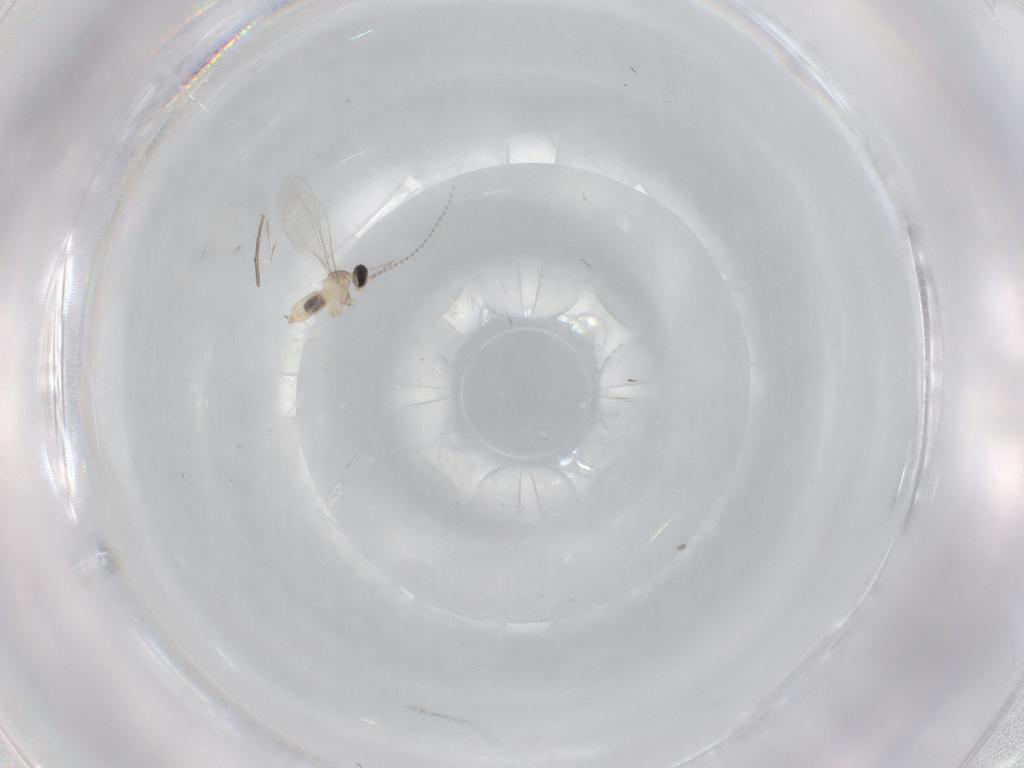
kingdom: Animalia
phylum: Arthropoda
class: Insecta
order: Diptera
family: Cecidomyiidae
